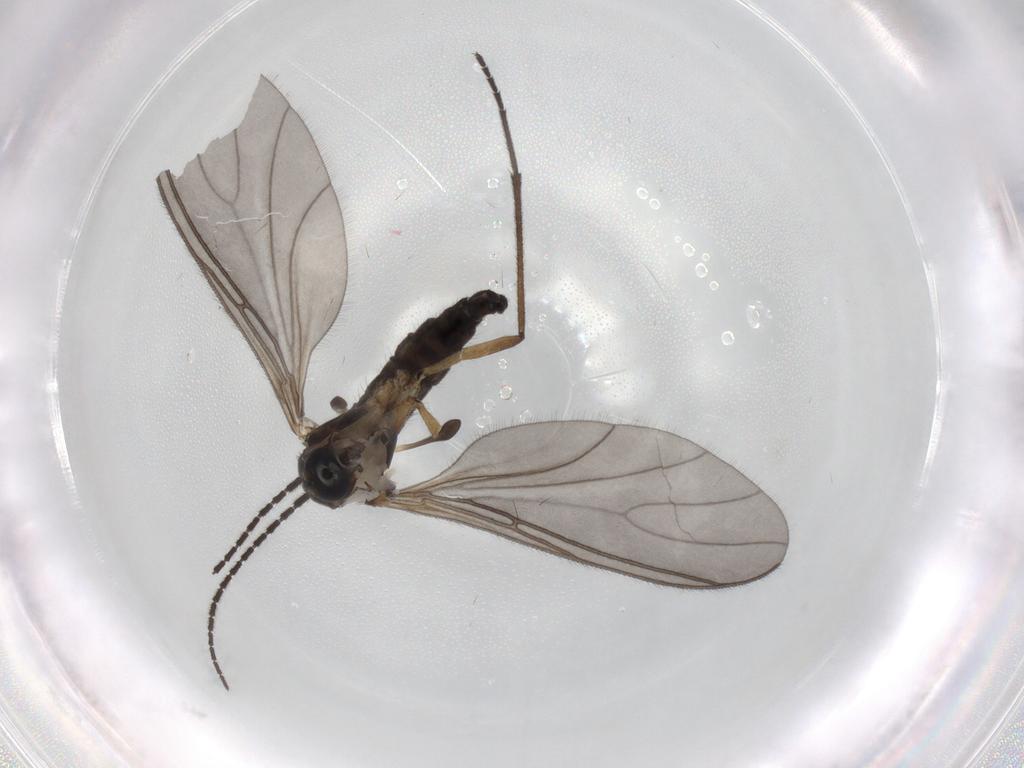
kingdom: Animalia
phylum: Arthropoda
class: Insecta
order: Diptera
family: Sciaridae
